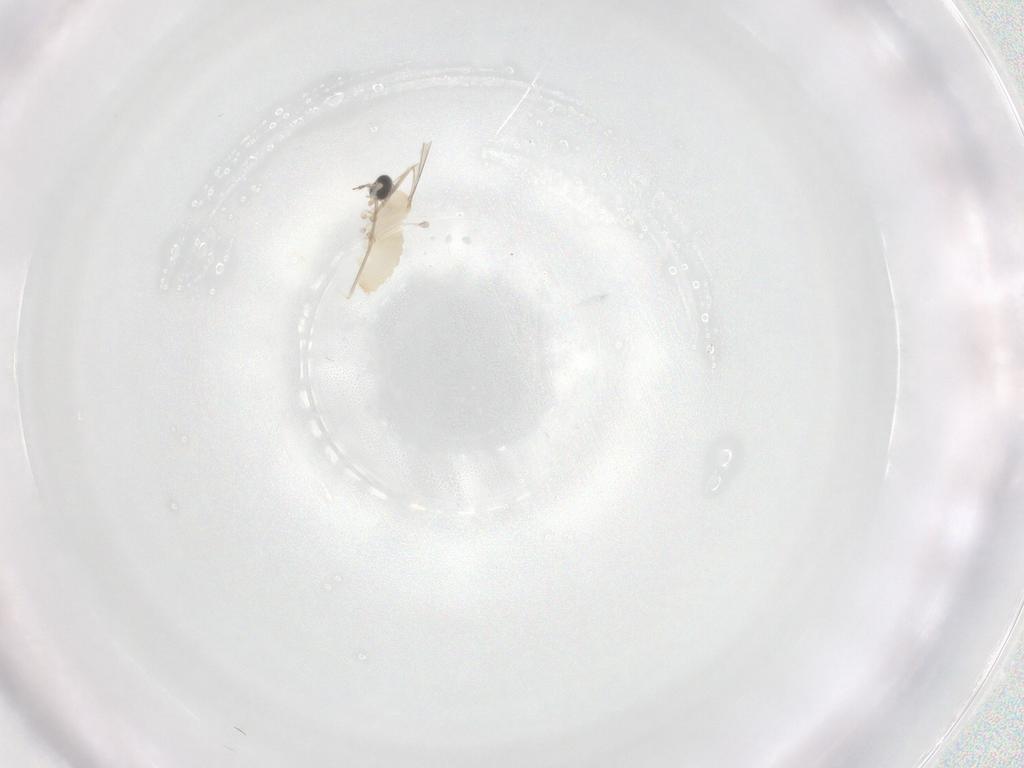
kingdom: Animalia
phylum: Arthropoda
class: Insecta
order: Diptera
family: Cecidomyiidae
